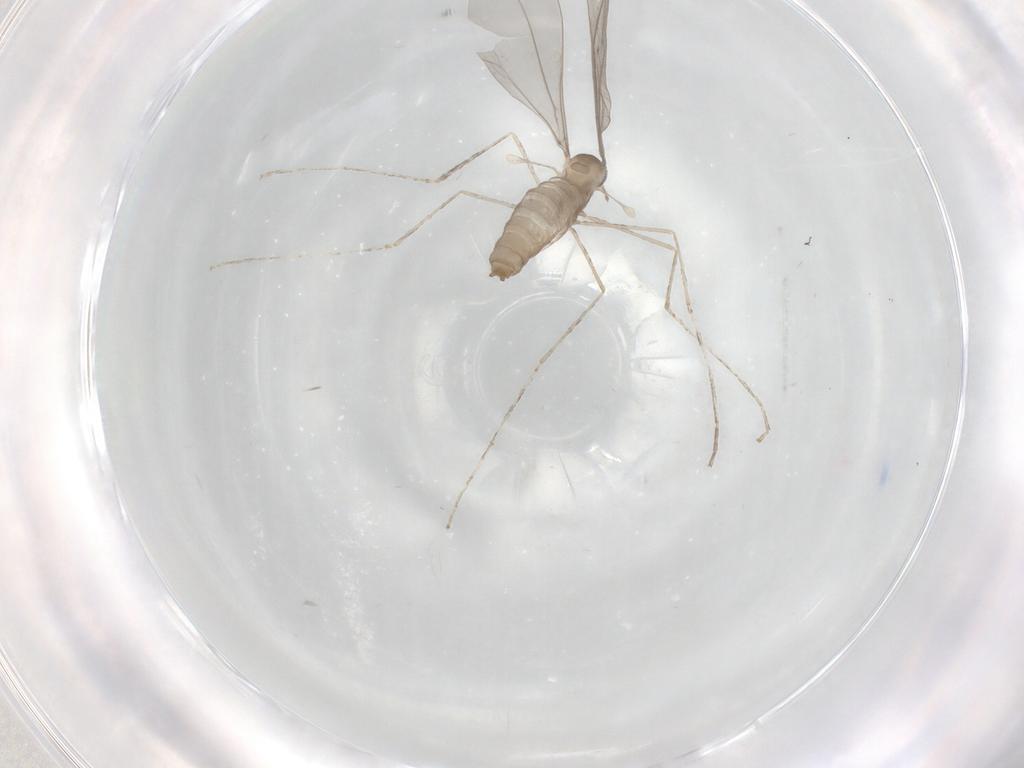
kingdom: Animalia
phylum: Arthropoda
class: Insecta
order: Diptera
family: Cecidomyiidae
